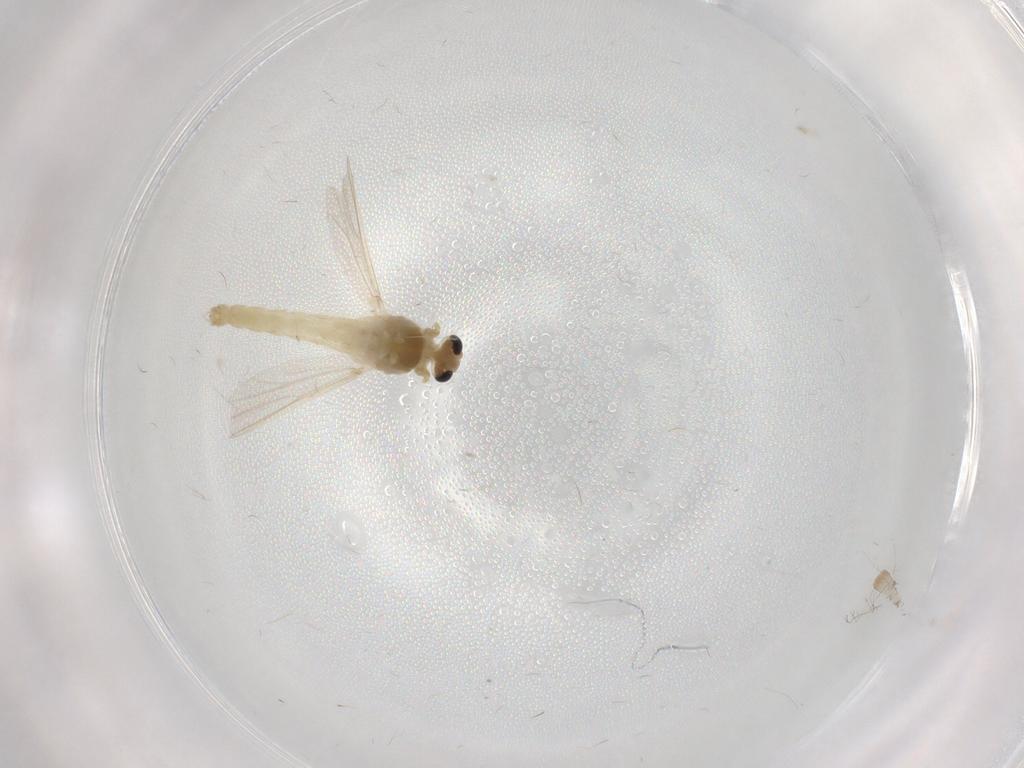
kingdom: Animalia
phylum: Arthropoda
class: Insecta
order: Diptera
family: Chironomidae
